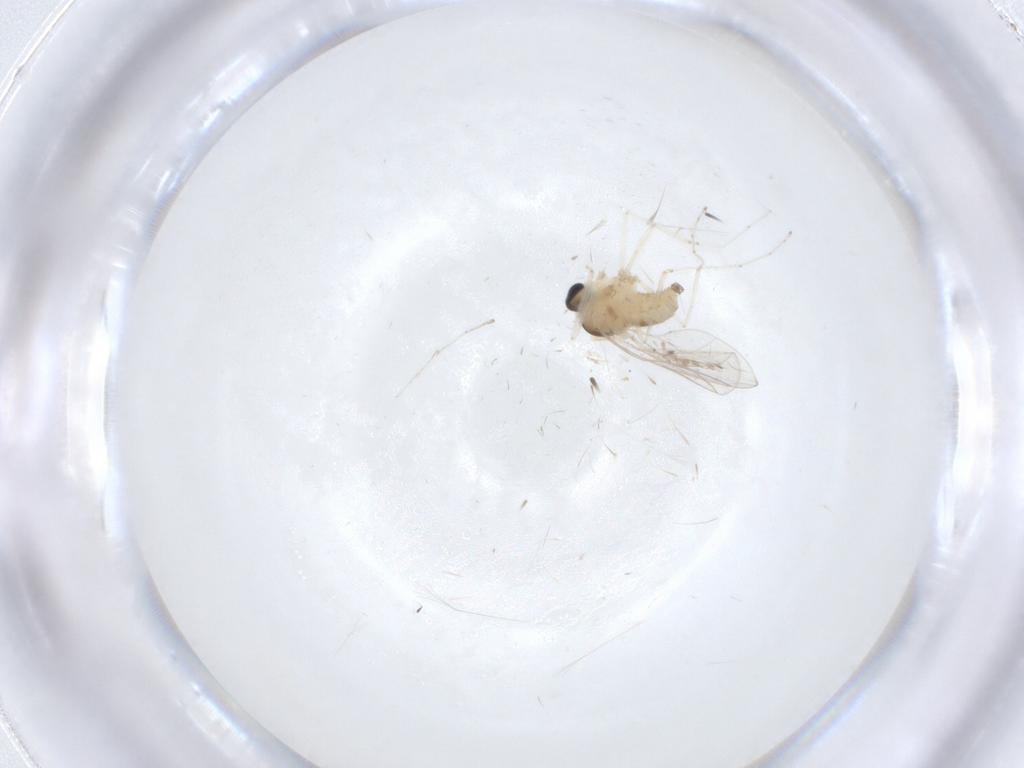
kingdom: Animalia
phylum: Arthropoda
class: Insecta
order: Diptera
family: Cecidomyiidae
